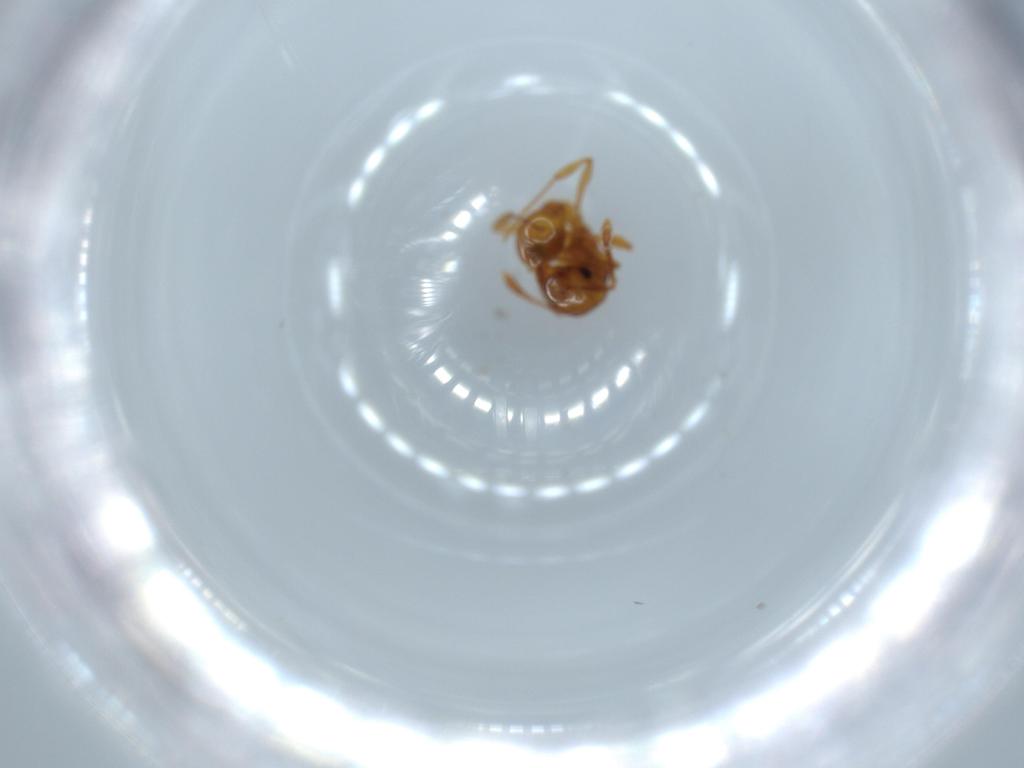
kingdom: Animalia
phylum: Arthropoda
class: Insecta
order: Hymenoptera
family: Formicidae
